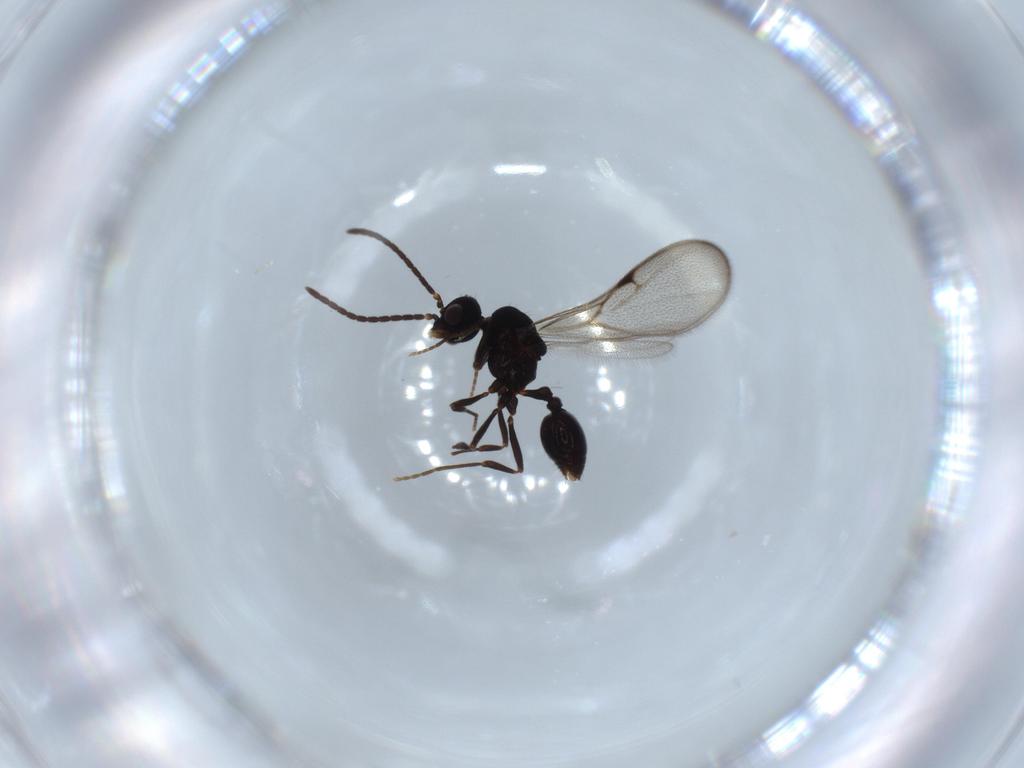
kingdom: Animalia
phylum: Arthropoda
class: Insecta
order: Hymenoptera
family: Formicidae
